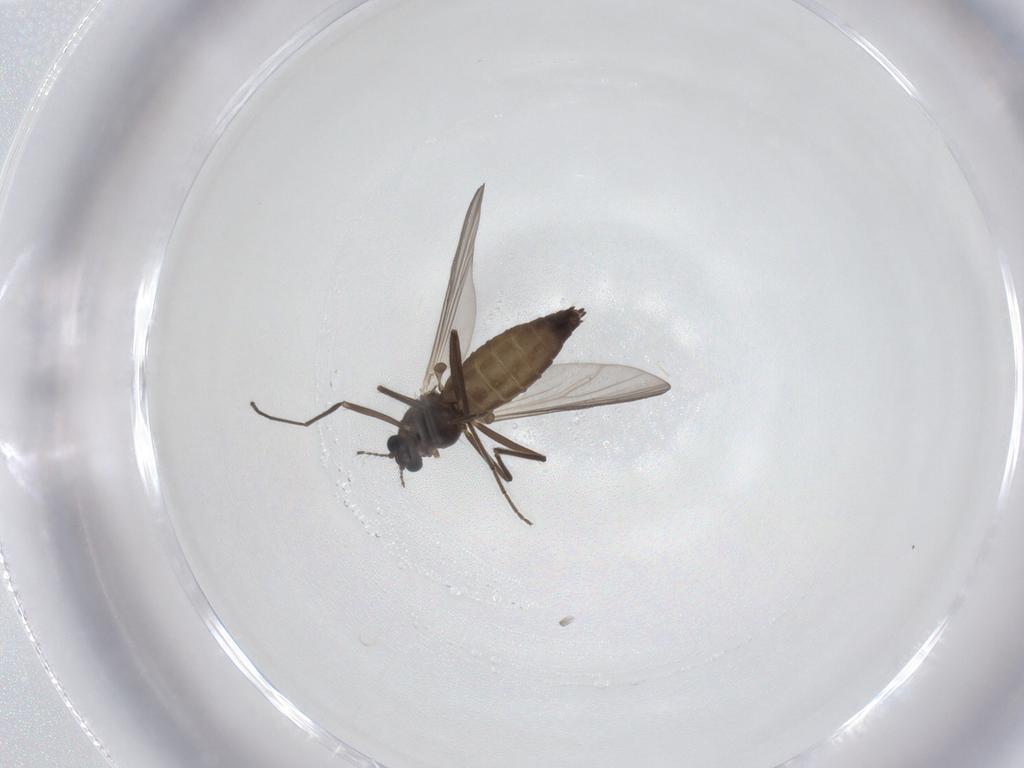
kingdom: Animalia
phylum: Arthropoda
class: Insecta
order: Diptera
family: Chironomidae
